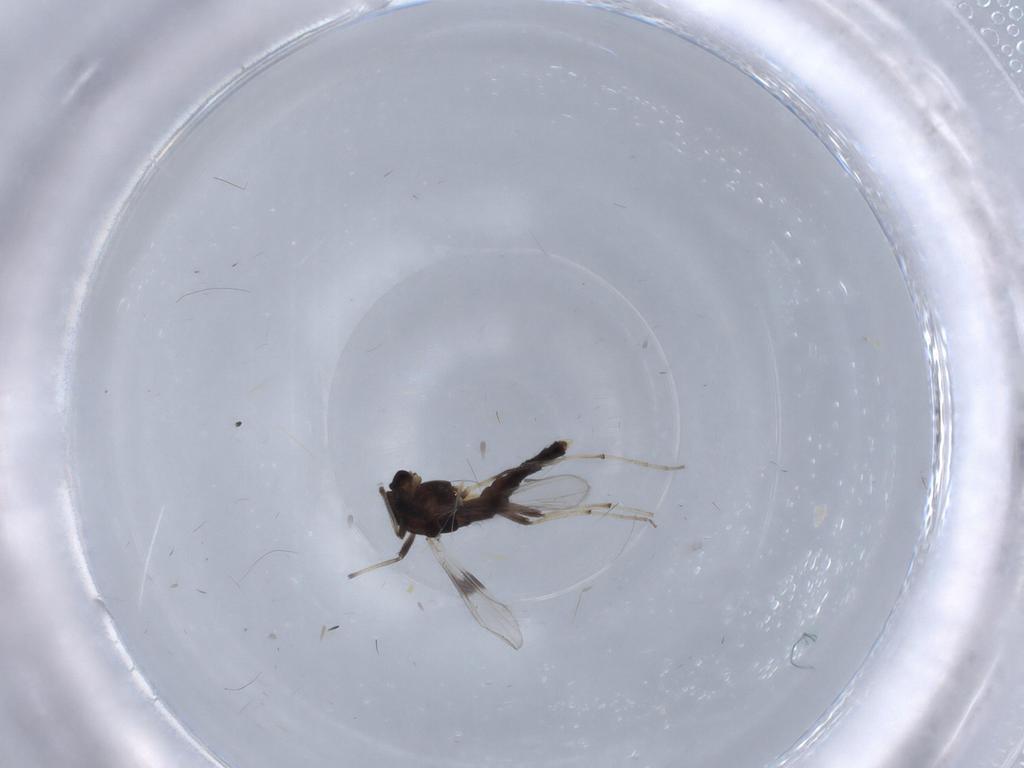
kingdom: Animalia
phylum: Arthropoda
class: Insecta
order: Diptera
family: Chironomidae
